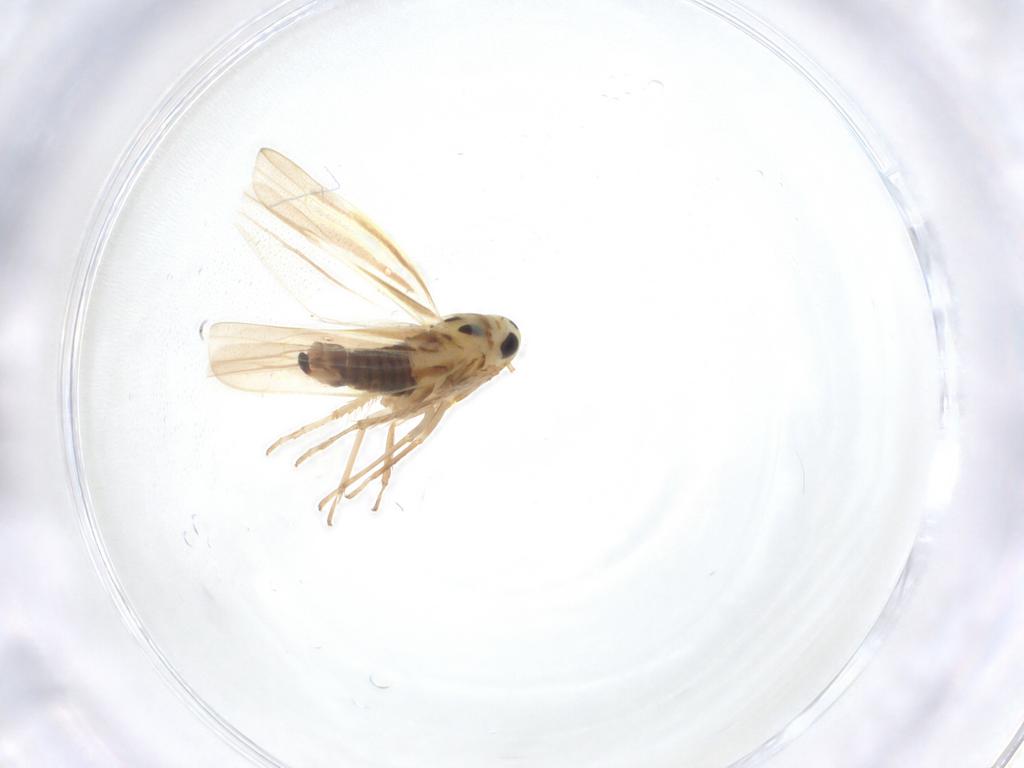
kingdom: Animalia
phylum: Arthropoda
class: Insecta
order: Hemiptera
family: Cicadellidae
